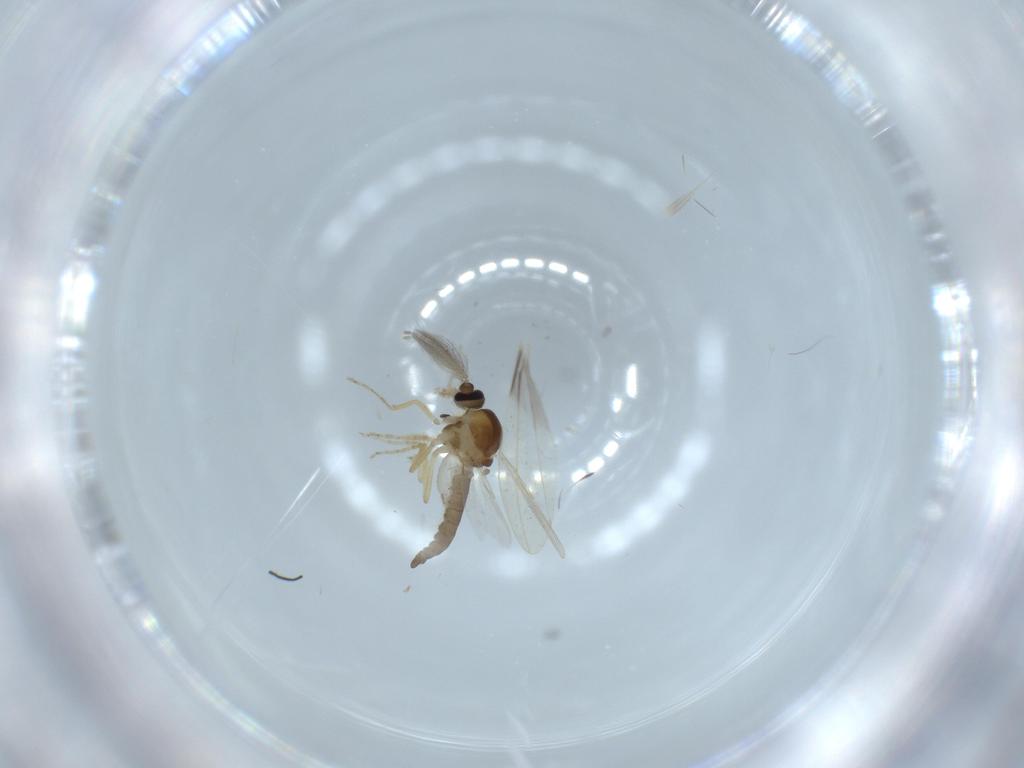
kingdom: Animalia
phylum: Arthropoda
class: Insecta
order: Diptera
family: Ceratopogonidae
